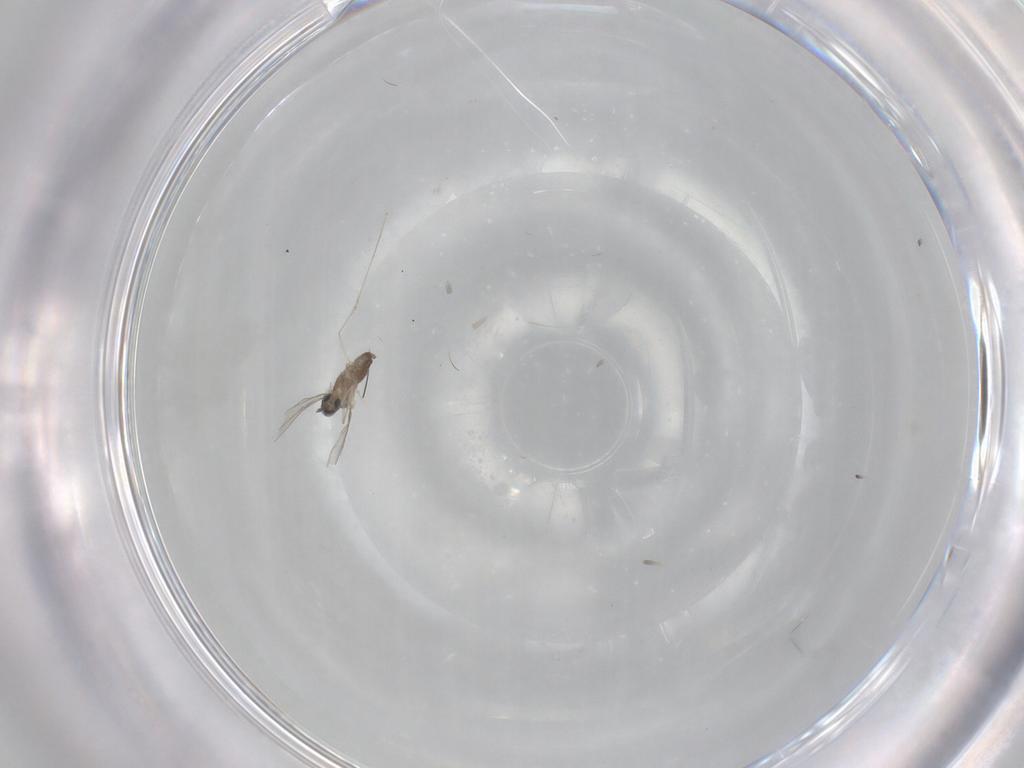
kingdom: Animalia
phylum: Arthropoda
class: Insecta
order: Diptera
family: Cecidomyiidae
